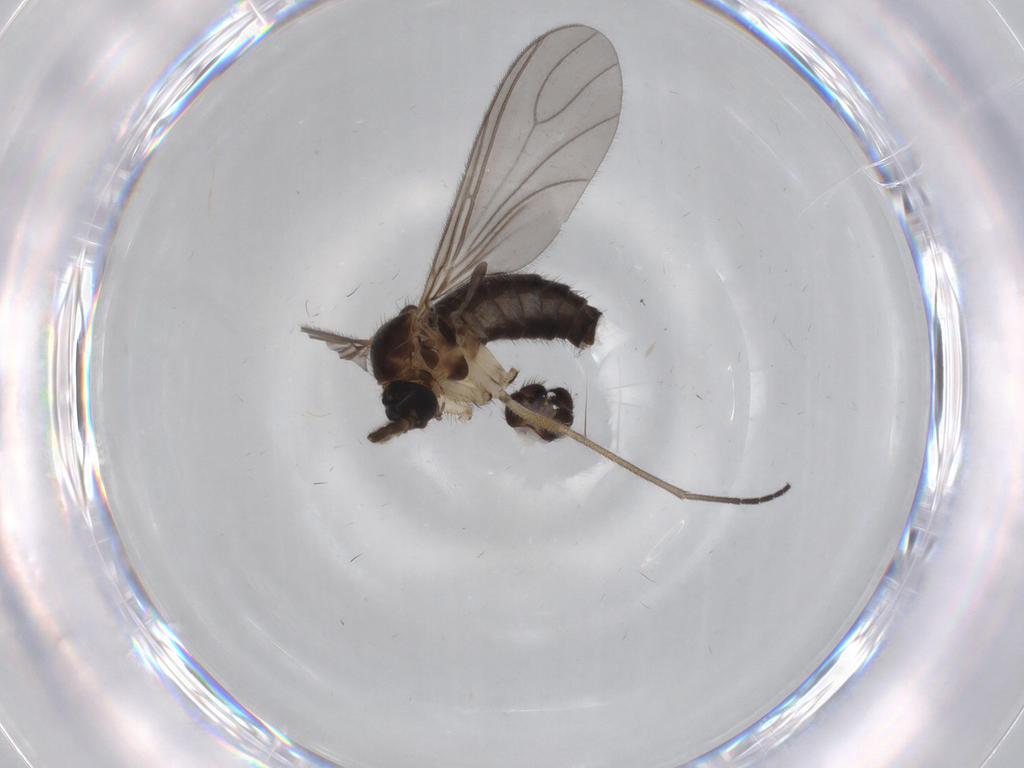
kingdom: Animalia
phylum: Arthropoda
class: Insecta
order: Diptera
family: Sciaridae
